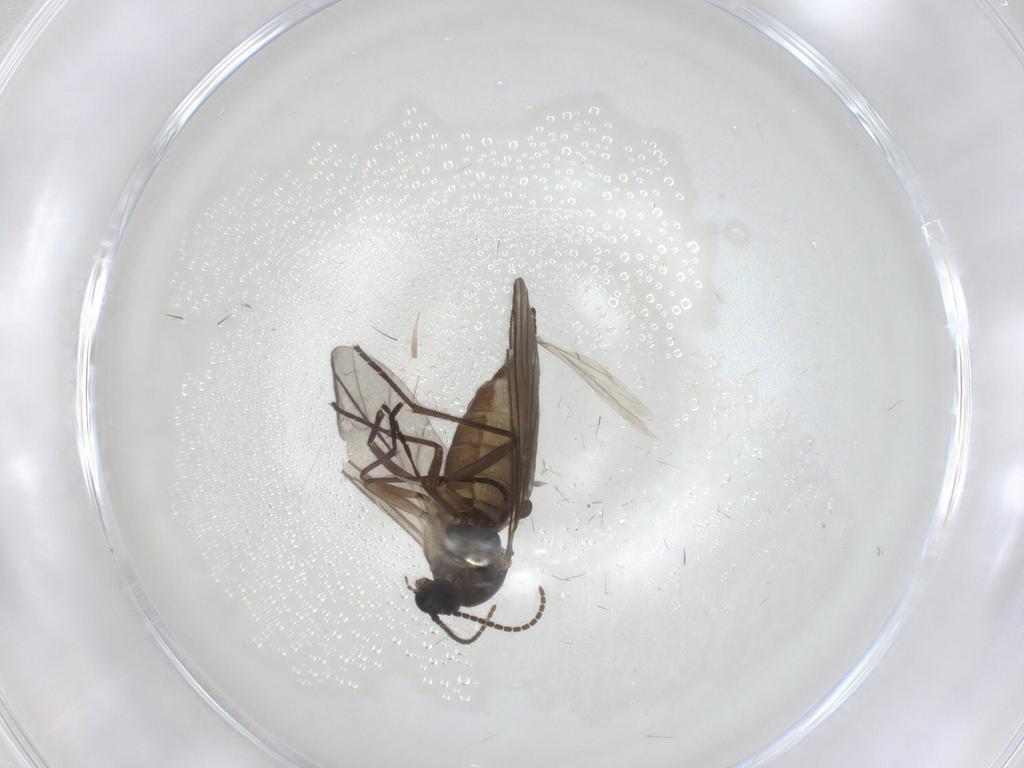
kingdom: Animalia
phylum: Arthropoda
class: Insecta
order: Diptera
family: Sciaridae
